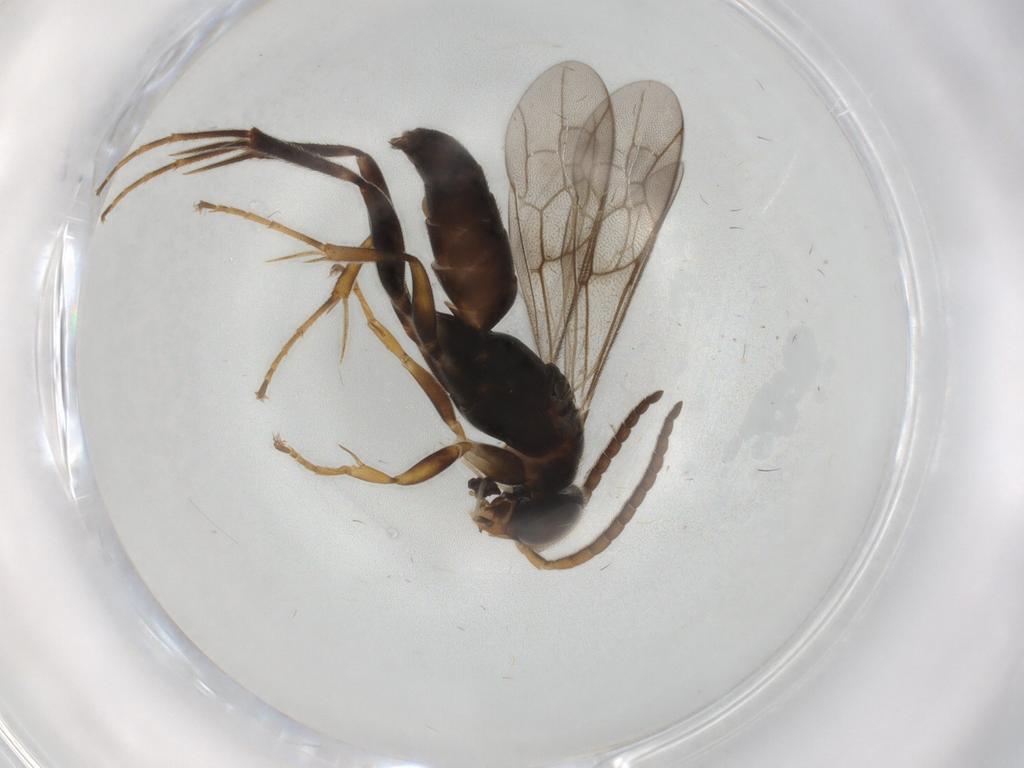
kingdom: Animalia
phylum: Arthropoda
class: Insecta
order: Hymenoptera
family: Pompilidae
